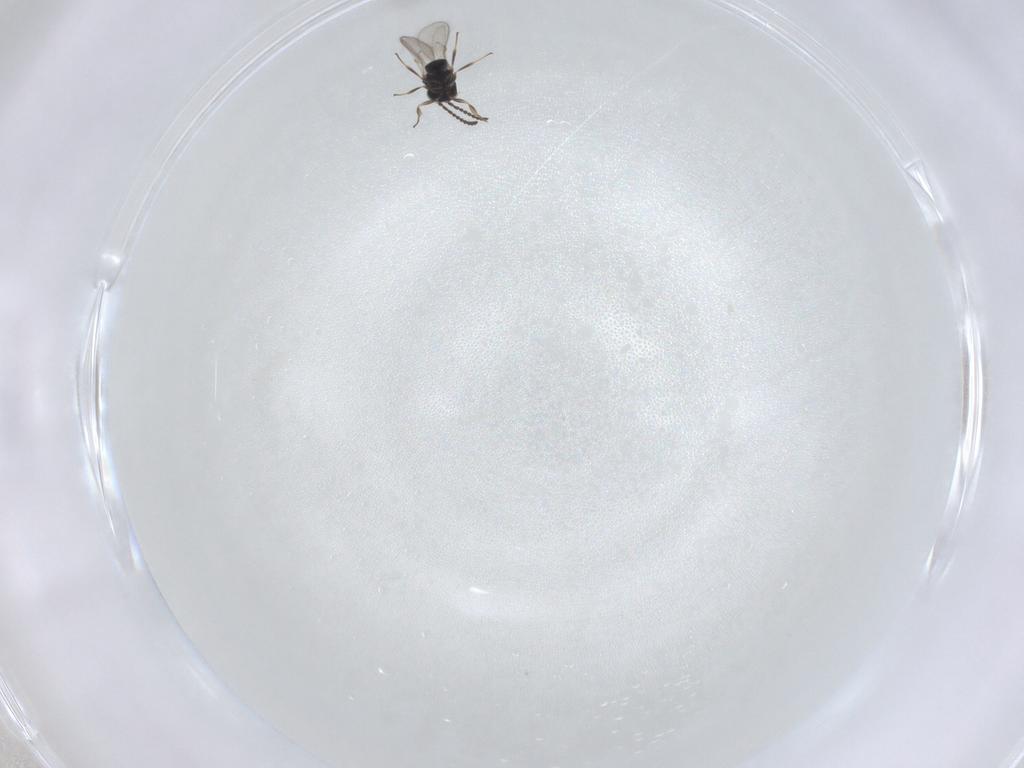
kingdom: Animalia
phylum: Arthropoda
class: Insecta
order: Hymenoptera
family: Scelionidae
